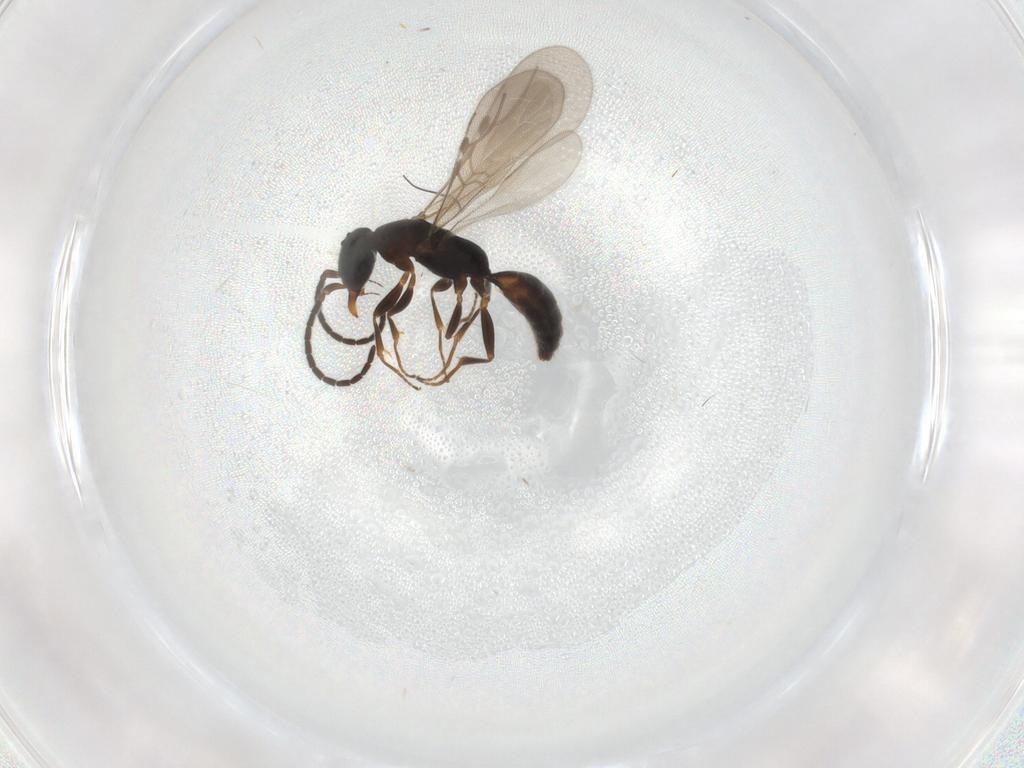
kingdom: Animalia
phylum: Arthropoda
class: Insecta
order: Hymenoptera
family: Bethylidae
